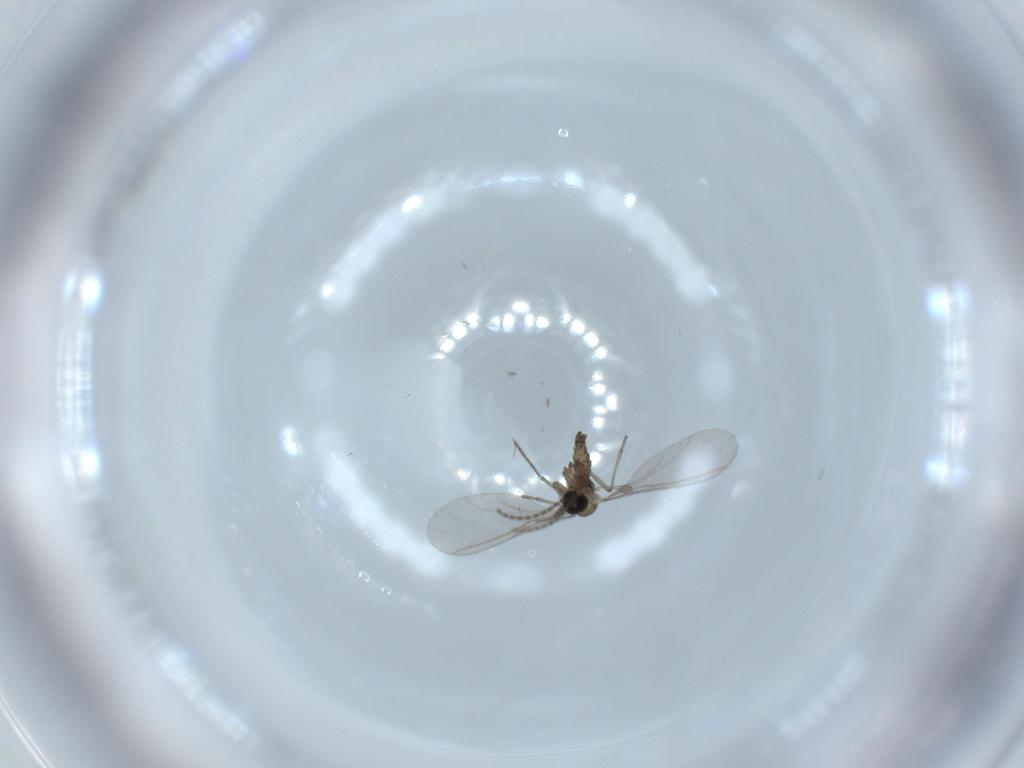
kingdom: Animalia
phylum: Arthropoda
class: Insecta
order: Diptera
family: Sciaridae
